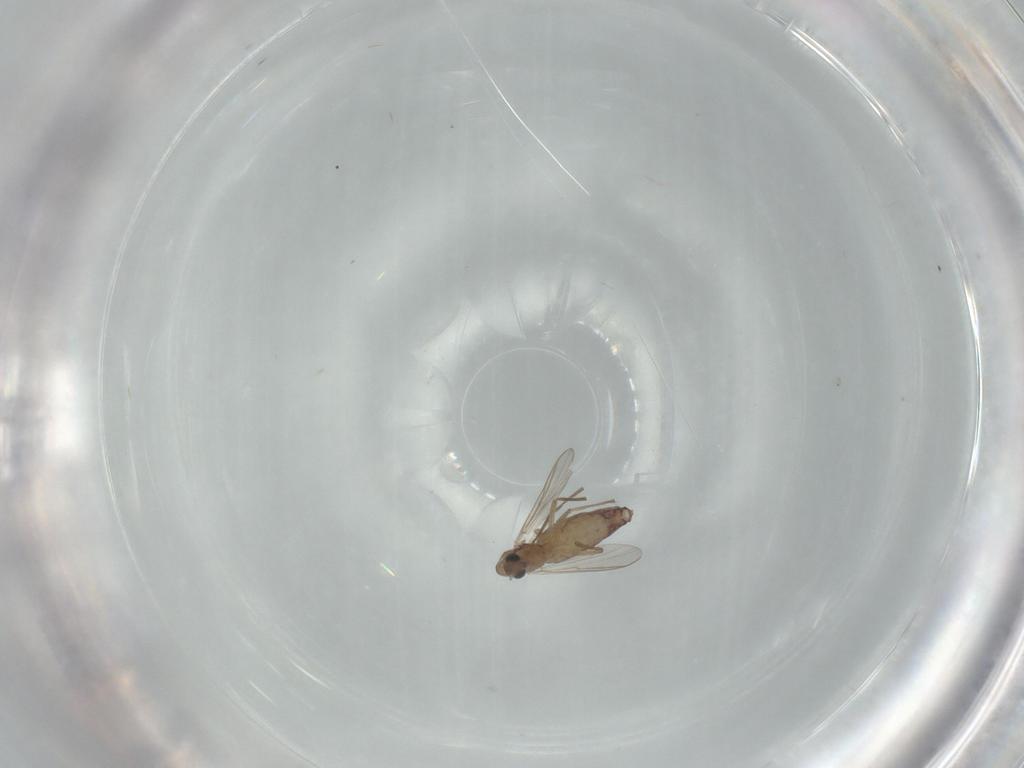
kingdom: Animalia
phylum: Arthropoda
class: Insecta
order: Diptera
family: Chironomidae
